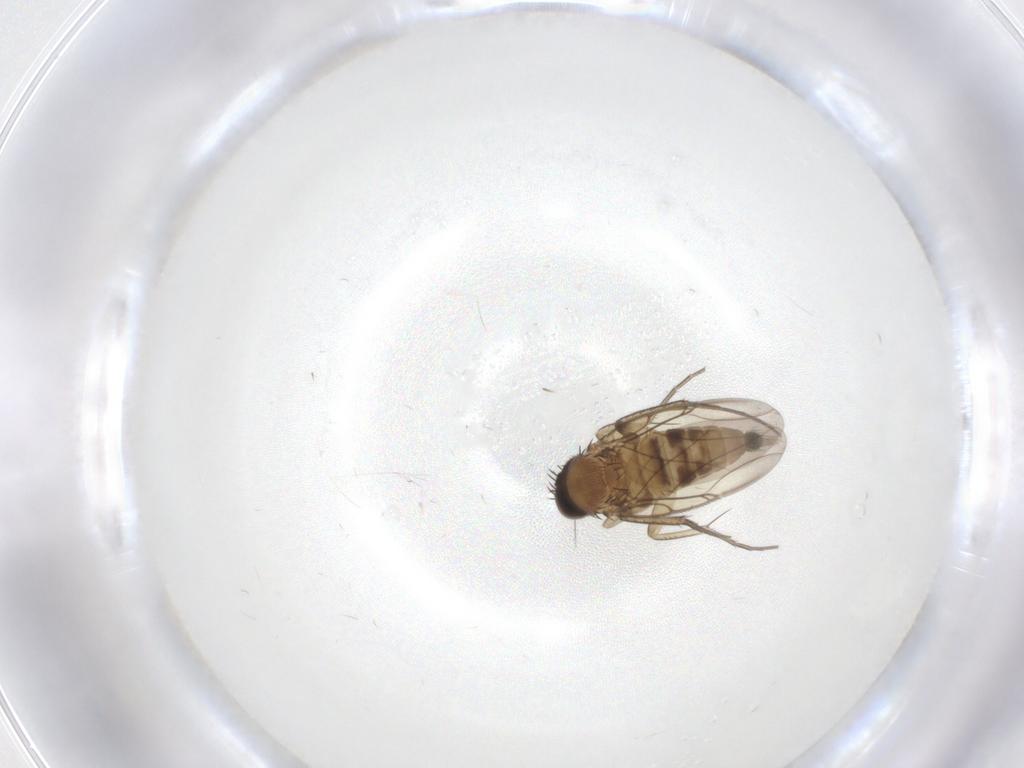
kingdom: Animalia
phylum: Arthropoda
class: Insecta
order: Diptera
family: Phoridae
